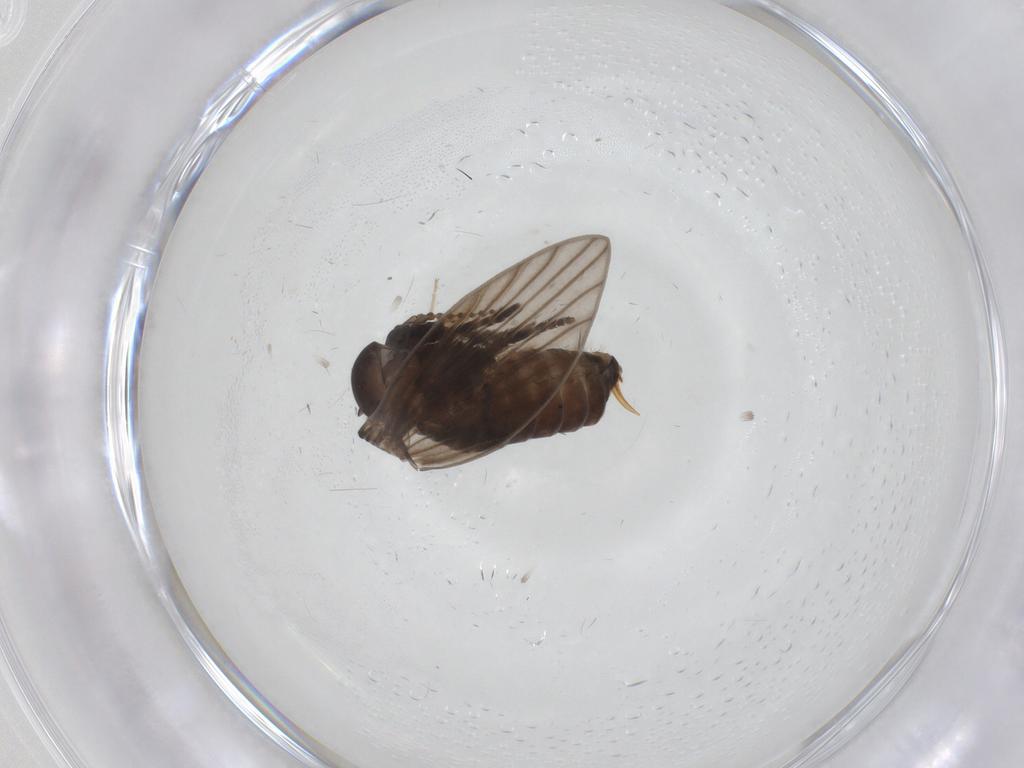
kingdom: Animalia
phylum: Arthropoda
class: Insecta
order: Diptera
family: Psychodidae
